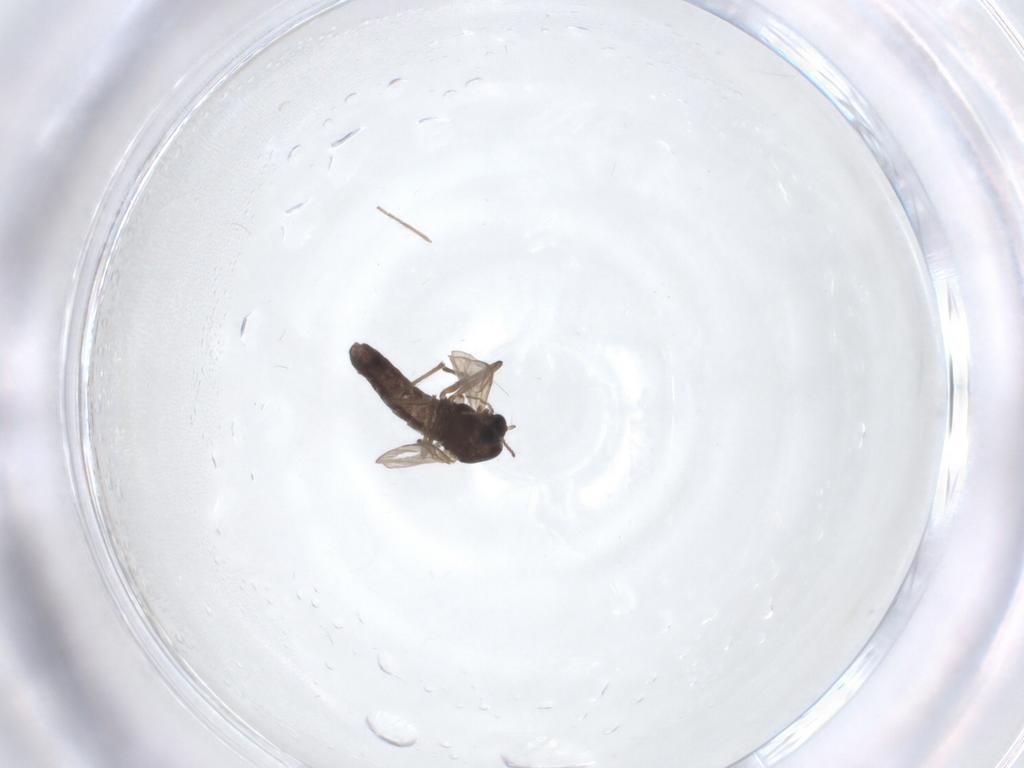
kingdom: Animalia
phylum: Arthropoda
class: Insecta
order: Diptera
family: Chironomidae
